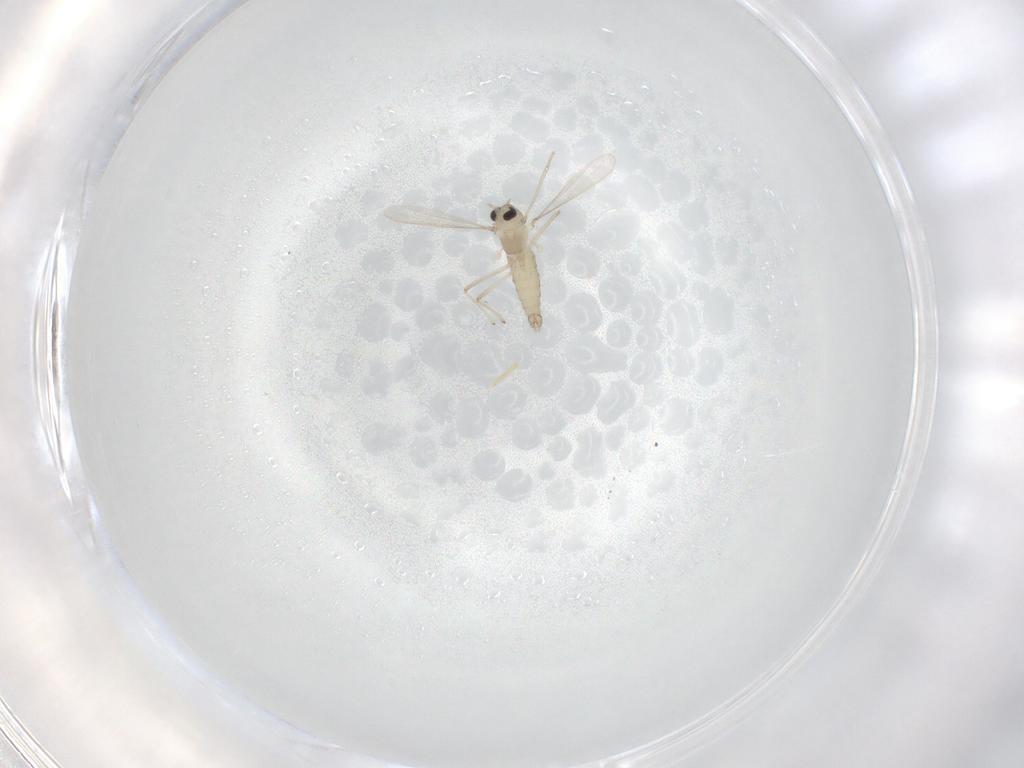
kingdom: Animalia
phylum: Arthropoda
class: Insecta
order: Diptera
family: Chironomidae
